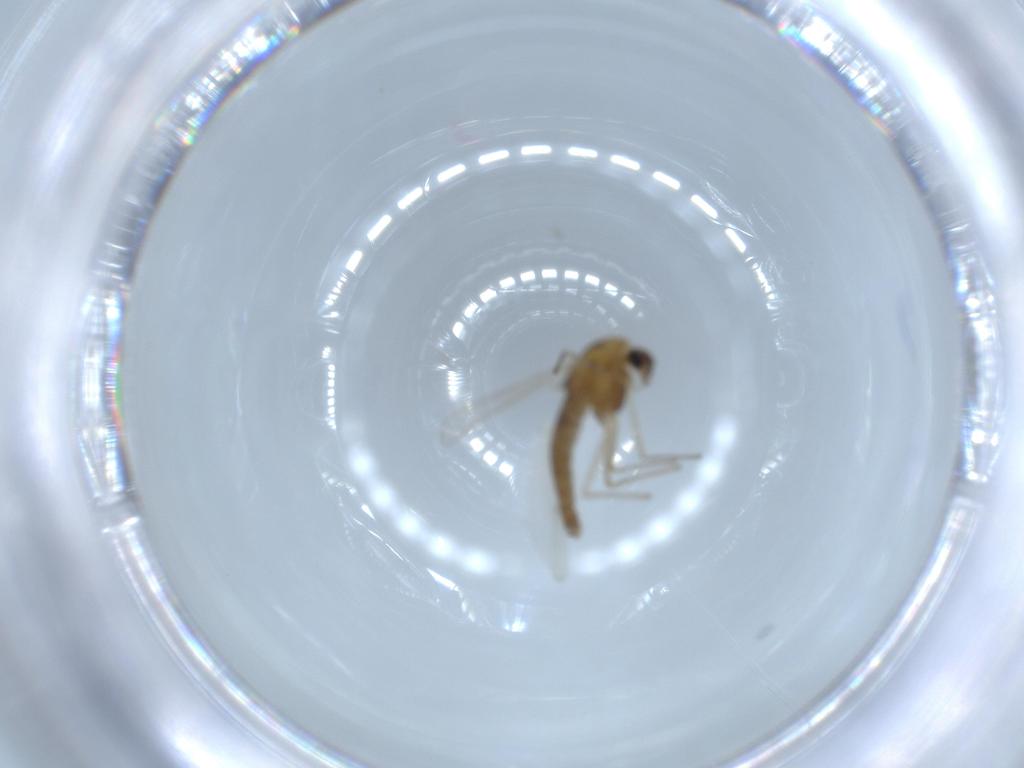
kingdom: Animalia
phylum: Arthropoda
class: Insecta
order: Diptera
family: Chironomidae
